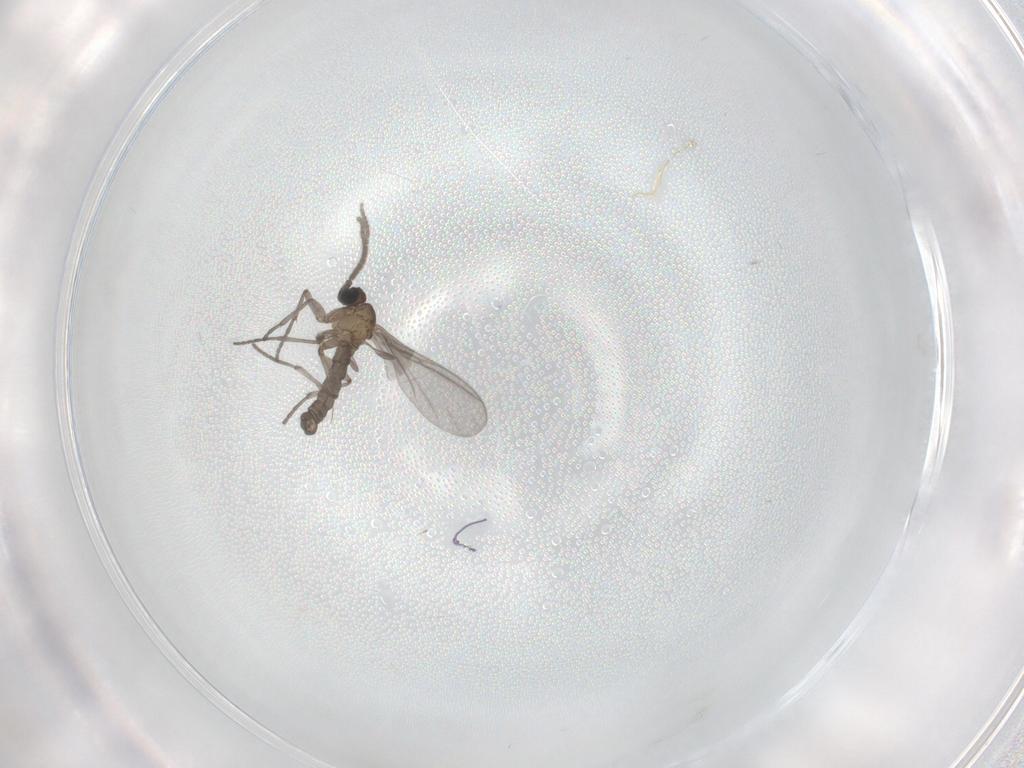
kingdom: Animalia
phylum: Arthropoda
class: Insecta
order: Diptera
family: Sciaridae
